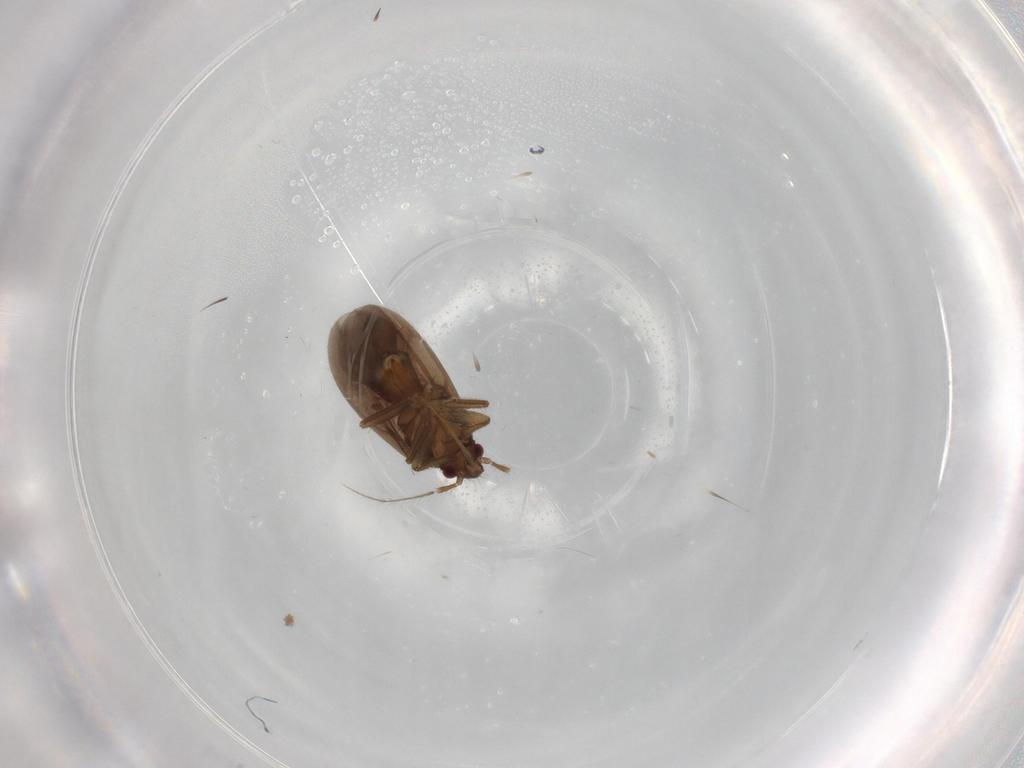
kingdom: Animalia
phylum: Arthropoda
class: Insecta
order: Hemiptera
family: Ceratocombidae
